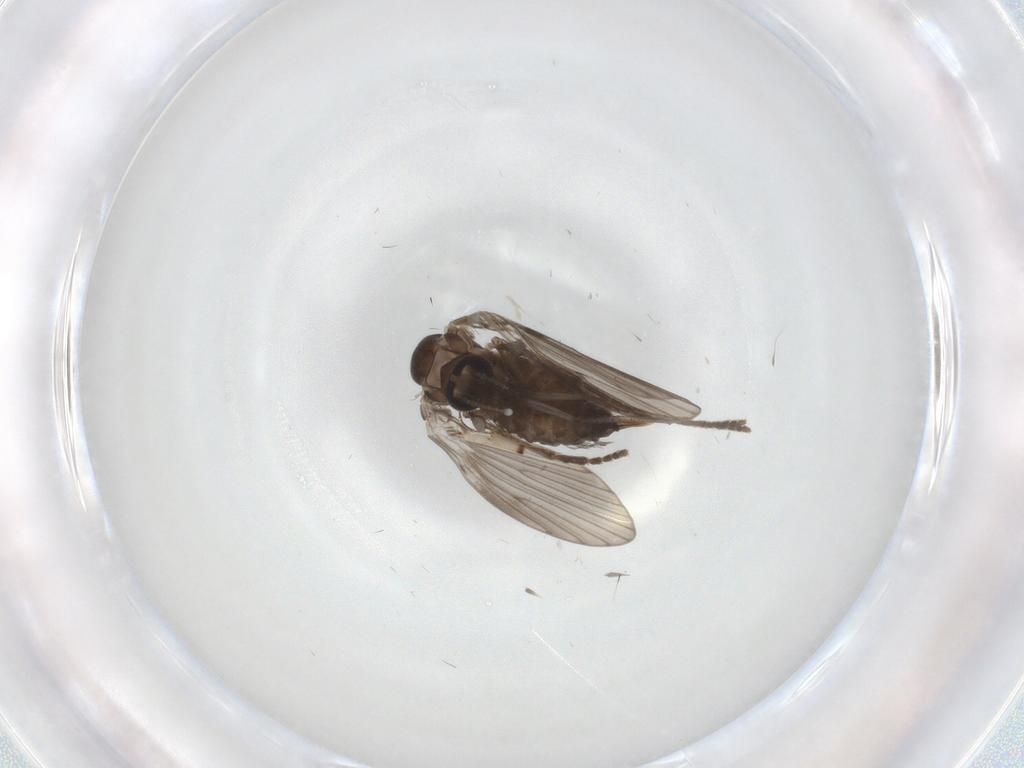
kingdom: Animalia
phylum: Arthropoda
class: Insecta
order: Diptera
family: Psychodidae
